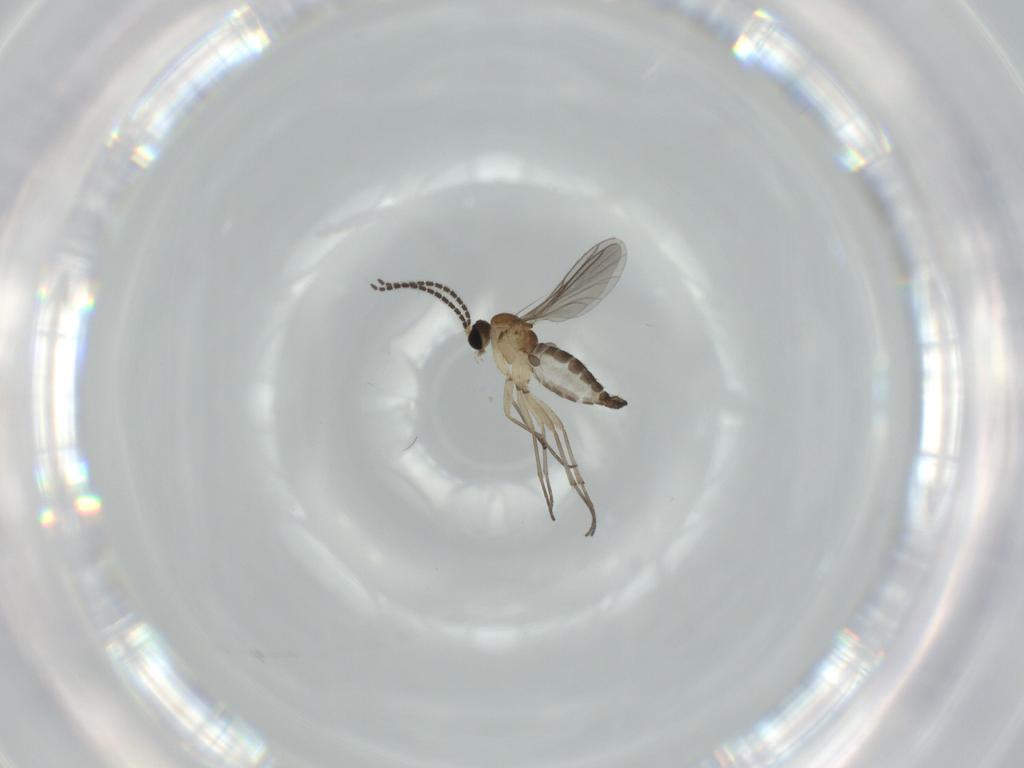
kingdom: Animalia
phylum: Arthropoda
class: Insecta
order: Diptera
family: Sciaridae
